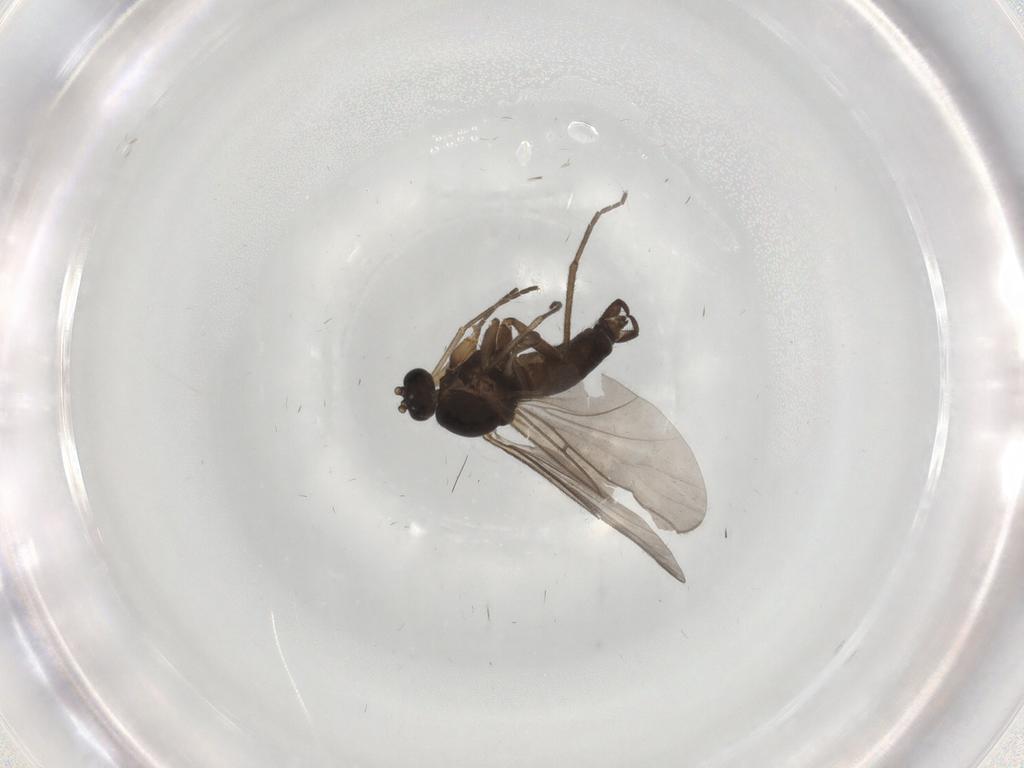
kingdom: Animalia
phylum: Arthropoda
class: Insecta
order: Diptera
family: Sciaridae
